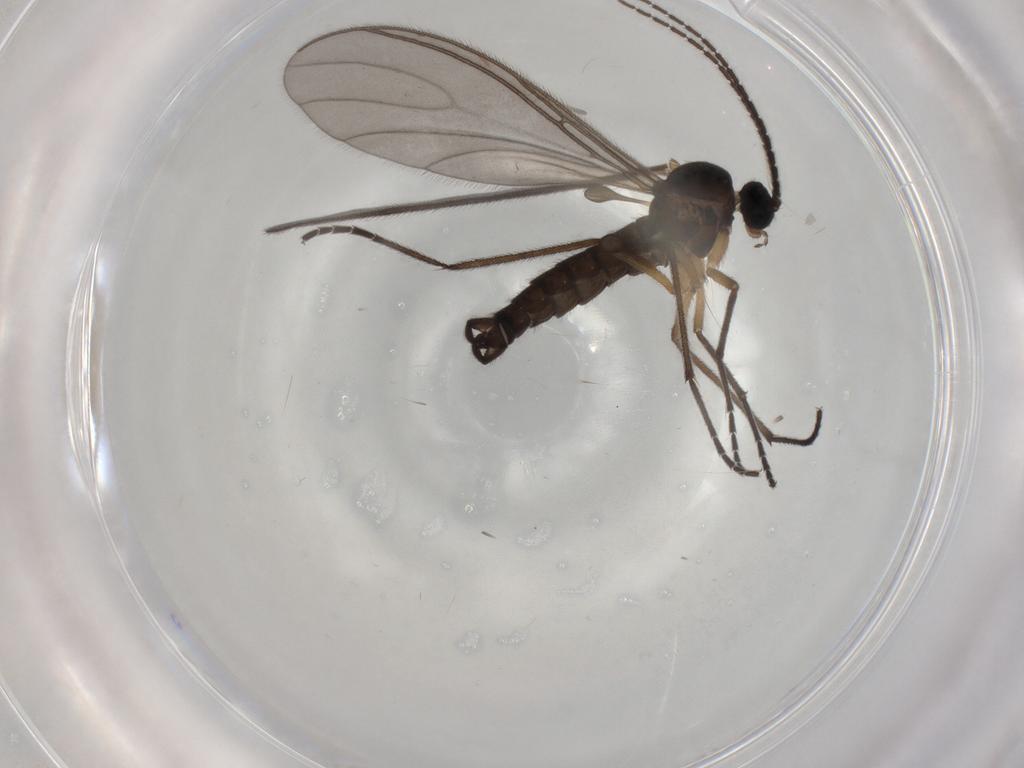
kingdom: Animalia
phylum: Arthropoda
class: Insecta
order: Diptera
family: Sciaridae
